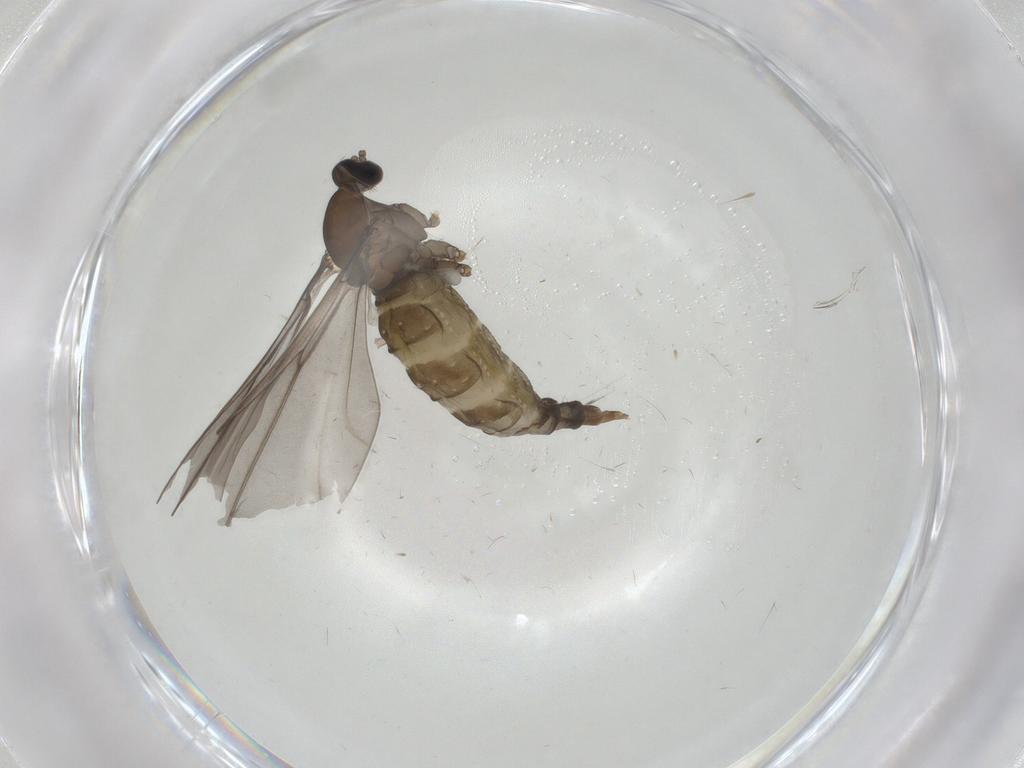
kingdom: Animalia
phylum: Arthropoda
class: Insecta
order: Diptera
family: Cecidomyiidae
